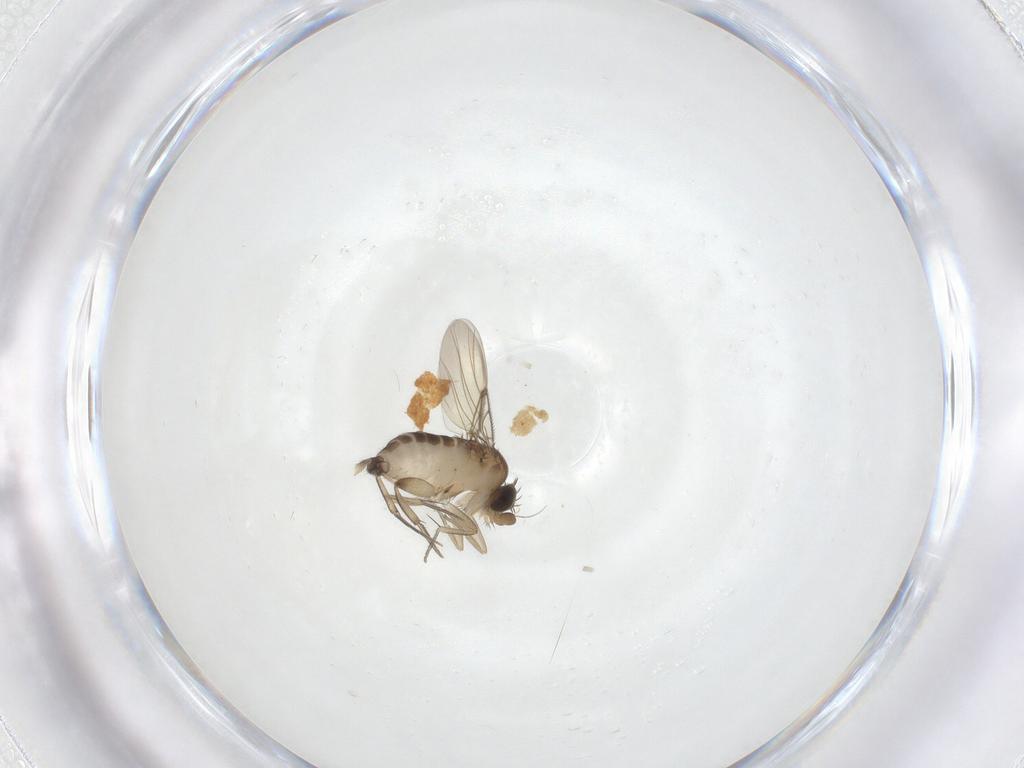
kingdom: Animalia
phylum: Arthropoda
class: Insecta
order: Diptera
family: Phoridae
